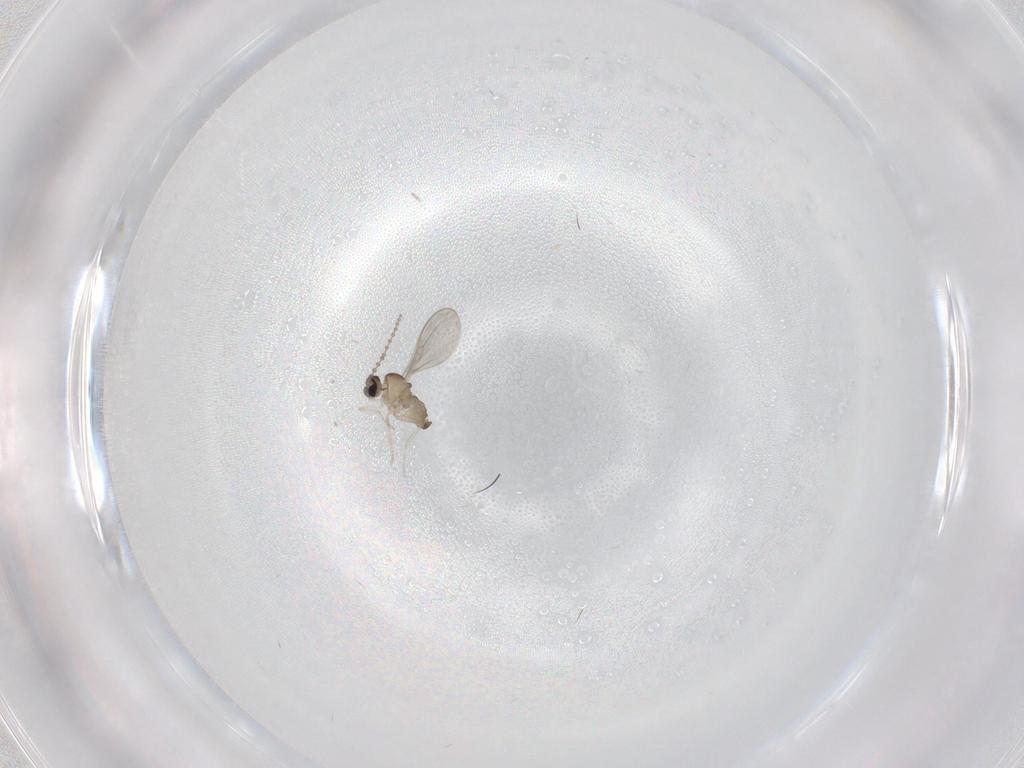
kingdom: Animalia
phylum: Arthropoda
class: Insecta
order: Diptera
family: Cecidomyiidae
